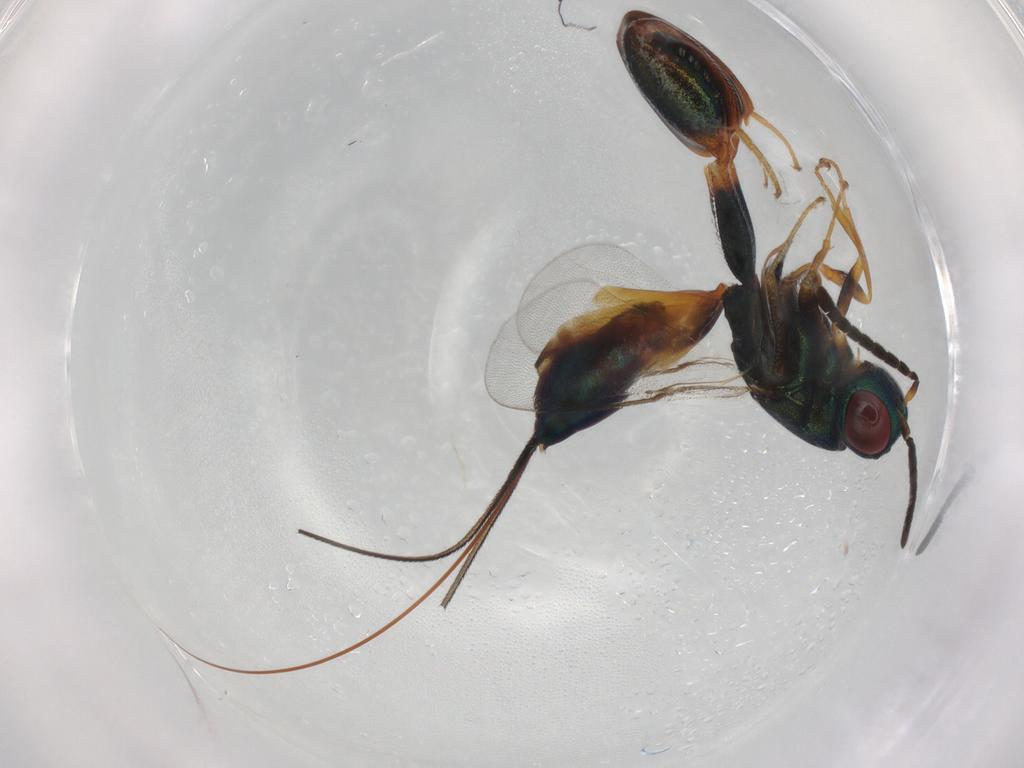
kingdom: Animalia
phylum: Arthropoda
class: Insecta
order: Hymenoptera
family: Torymidae
